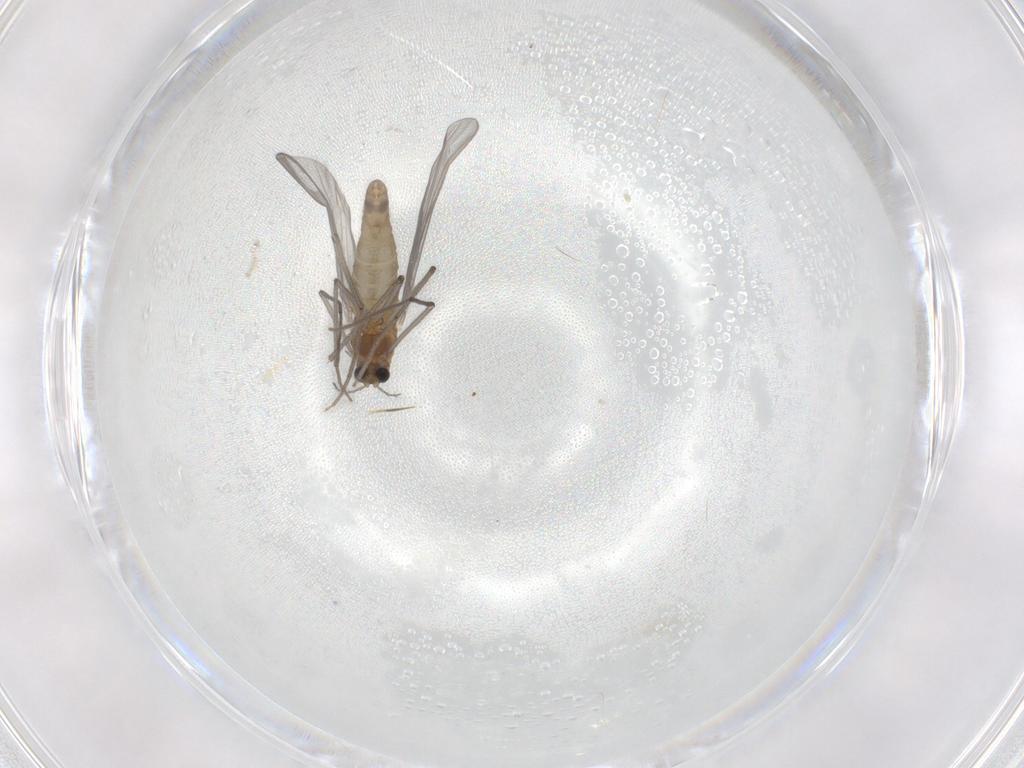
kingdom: Animalia
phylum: Arthropoda
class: Insecta
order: Diptera
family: Chironomidae
